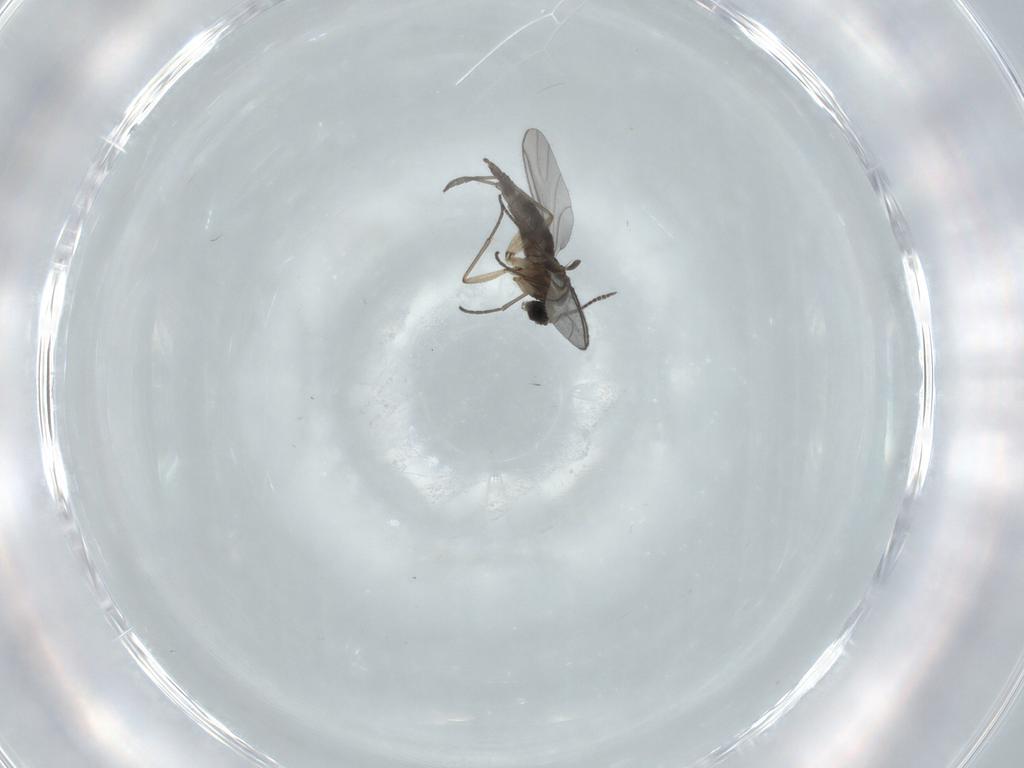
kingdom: Animalia
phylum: Arthropoda
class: Insecta
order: Diptera
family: Sciaridae
